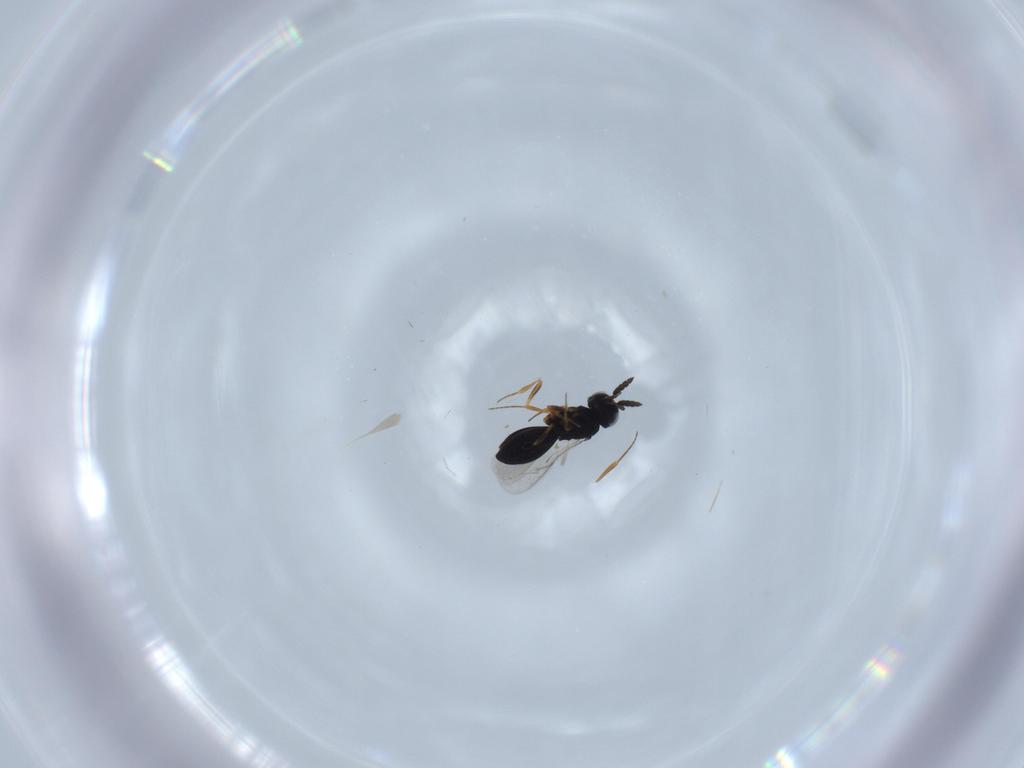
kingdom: Animalia
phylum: Arthropoda
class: Insecta
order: Hymenoptera
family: Scelionidae
